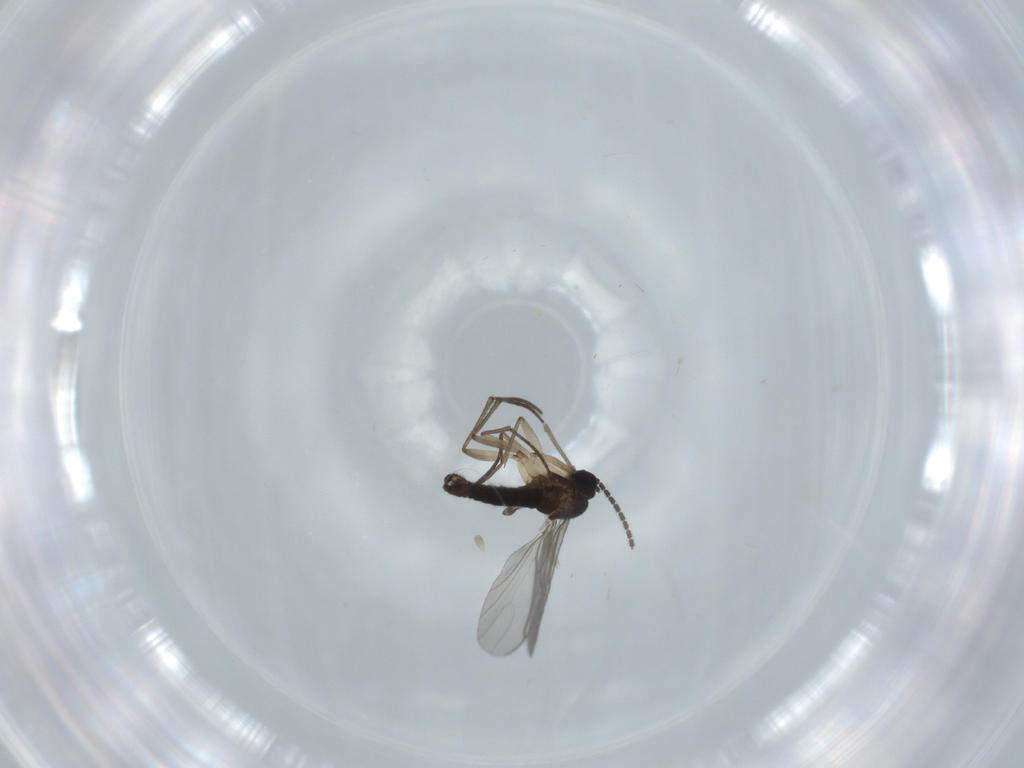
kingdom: Animalia
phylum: Arthropoda
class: Insecta
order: Diptera
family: Sciaridae
